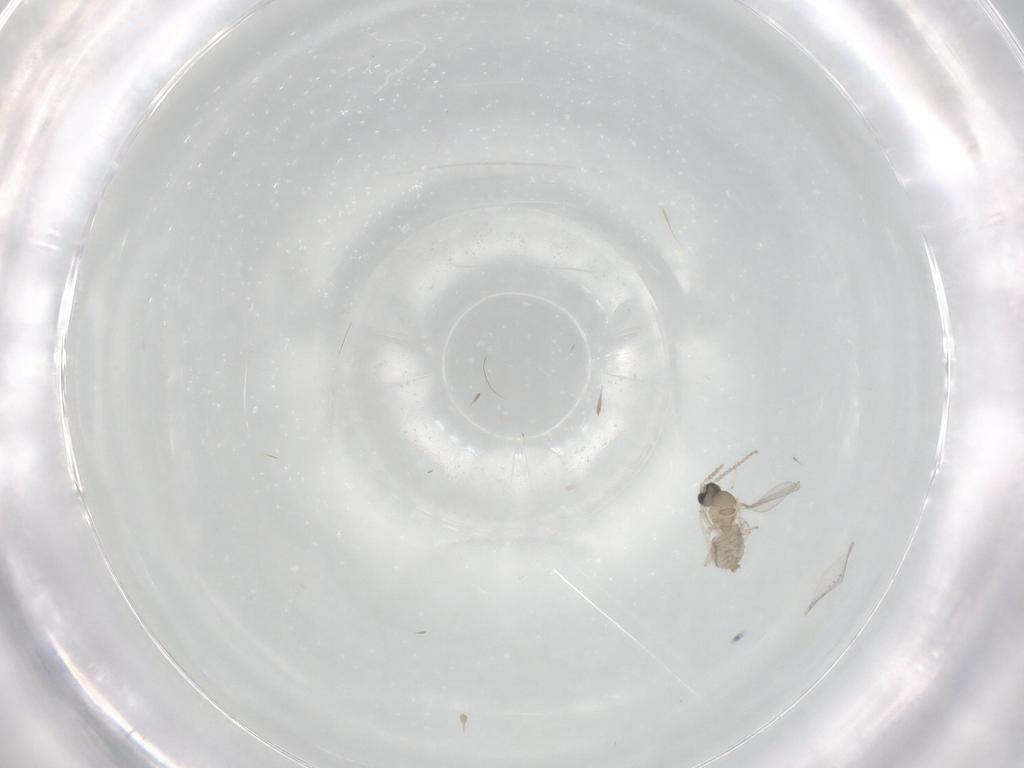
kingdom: Animalia
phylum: Arthropoda
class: Insecta
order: Diptera
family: Cecidomyiidae
